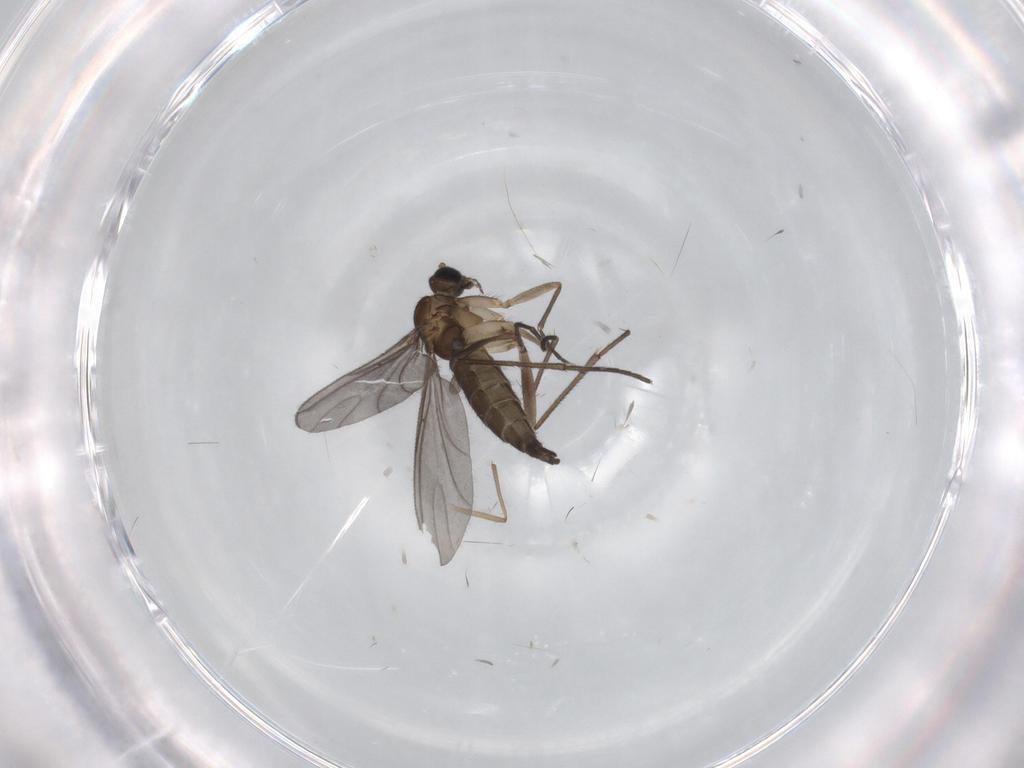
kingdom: Animalia
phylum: Arthropoda
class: Insecta
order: Diptera
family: Sciaridae
